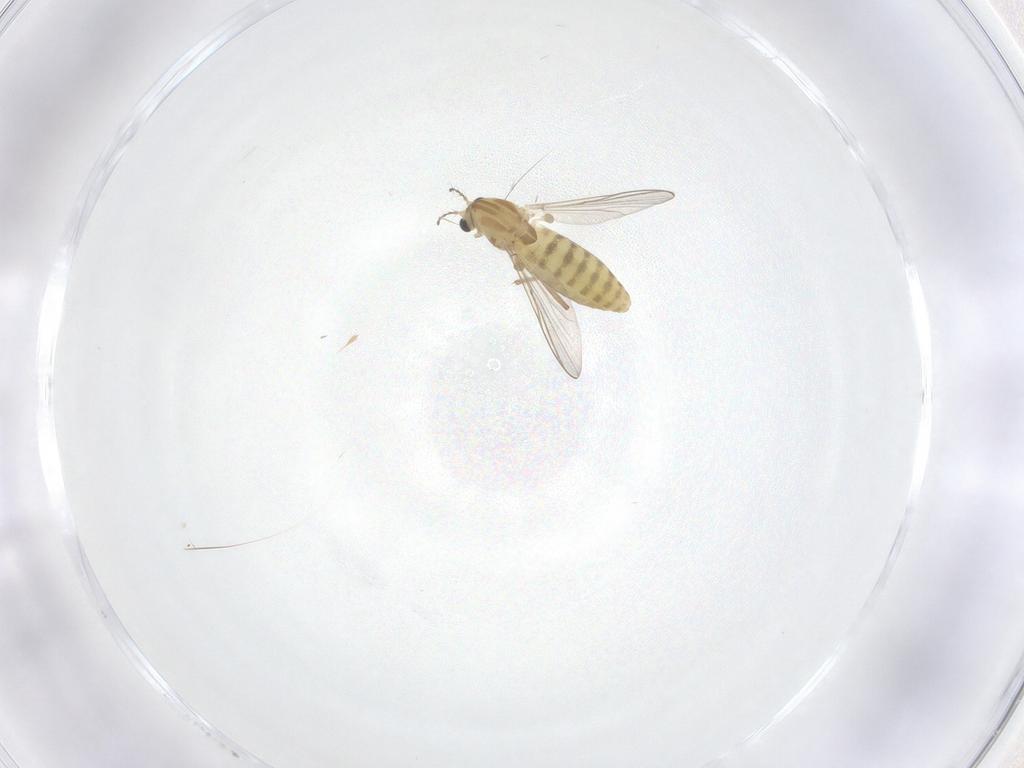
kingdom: Animalia
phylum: Arthropoda
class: Insecta
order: Diptera
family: Chironomidae
